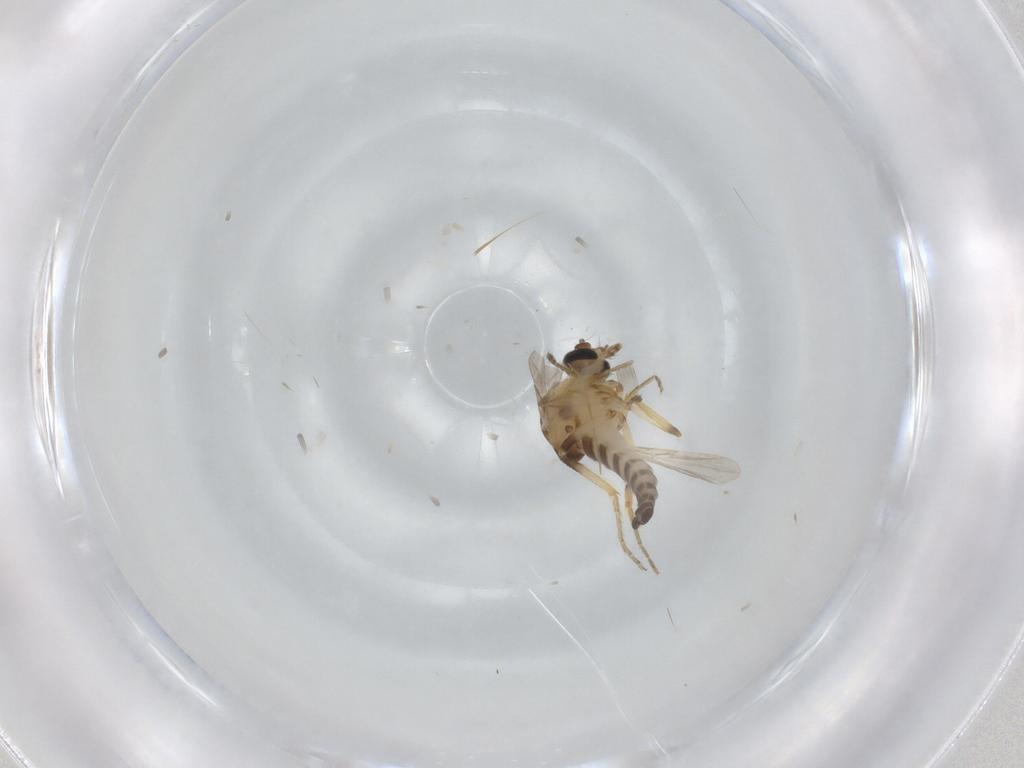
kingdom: Animalia
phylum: Arthropoda
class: Insecta
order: Diptera
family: Ceratopogonidae
